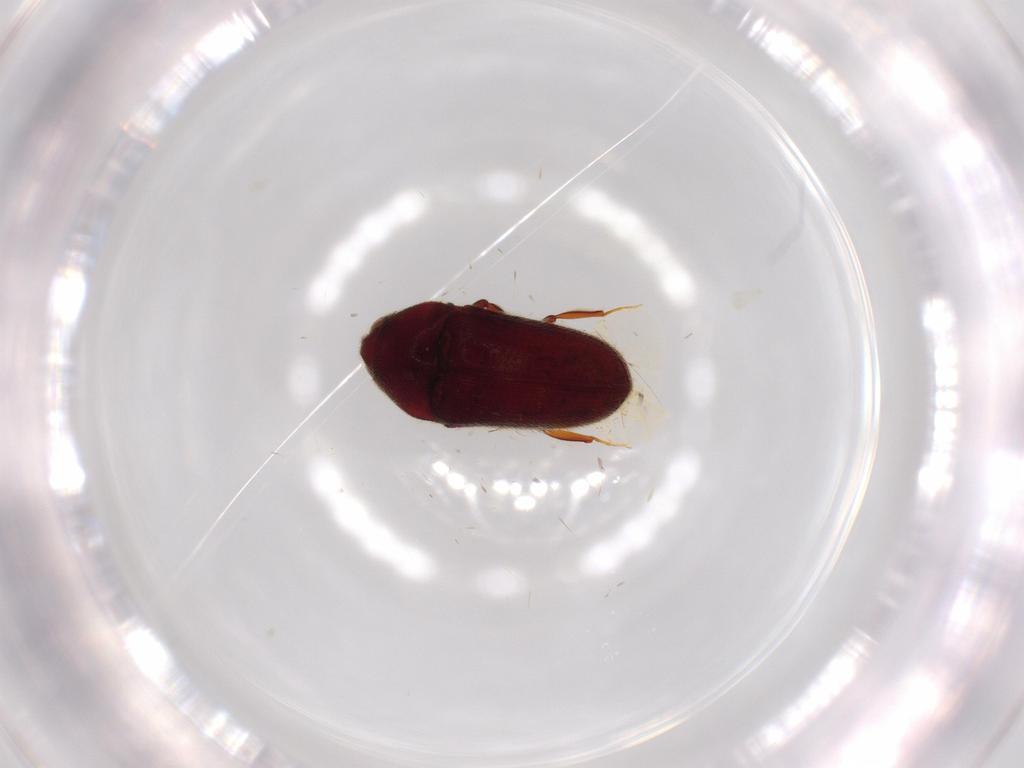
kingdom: Animalia
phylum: Arthropoda
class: Insecta
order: Coleoptera
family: Throscidae
